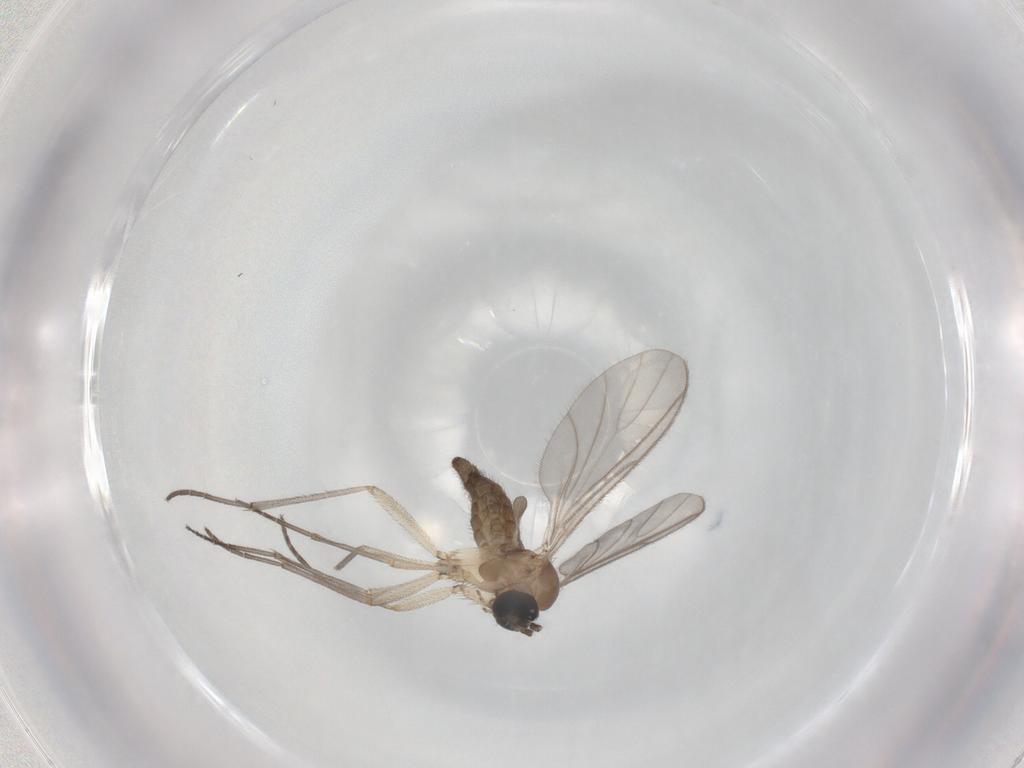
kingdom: Animalia
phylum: Arthropoda
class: Insecta
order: Diptera
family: Sciaridae
